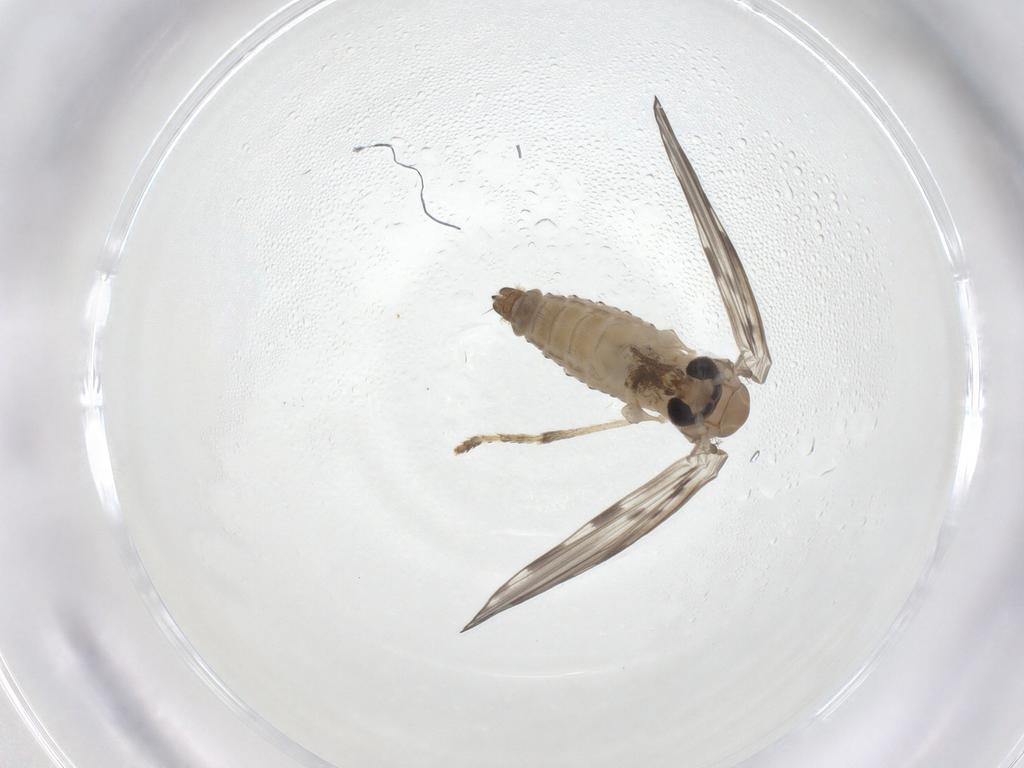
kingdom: Animalia
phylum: Arthropoda
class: Insecta
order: Diptera
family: Psychodidae
